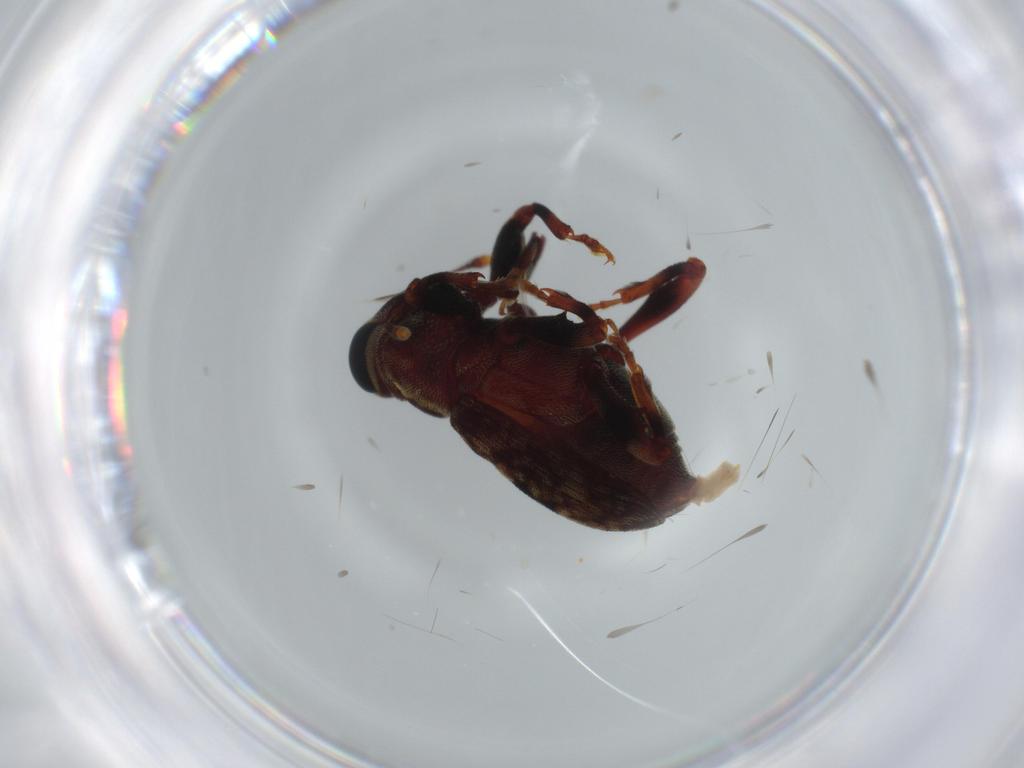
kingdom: Animalia
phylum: Arthropoda
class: Insecta
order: Coleoptera
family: Curculionidae
